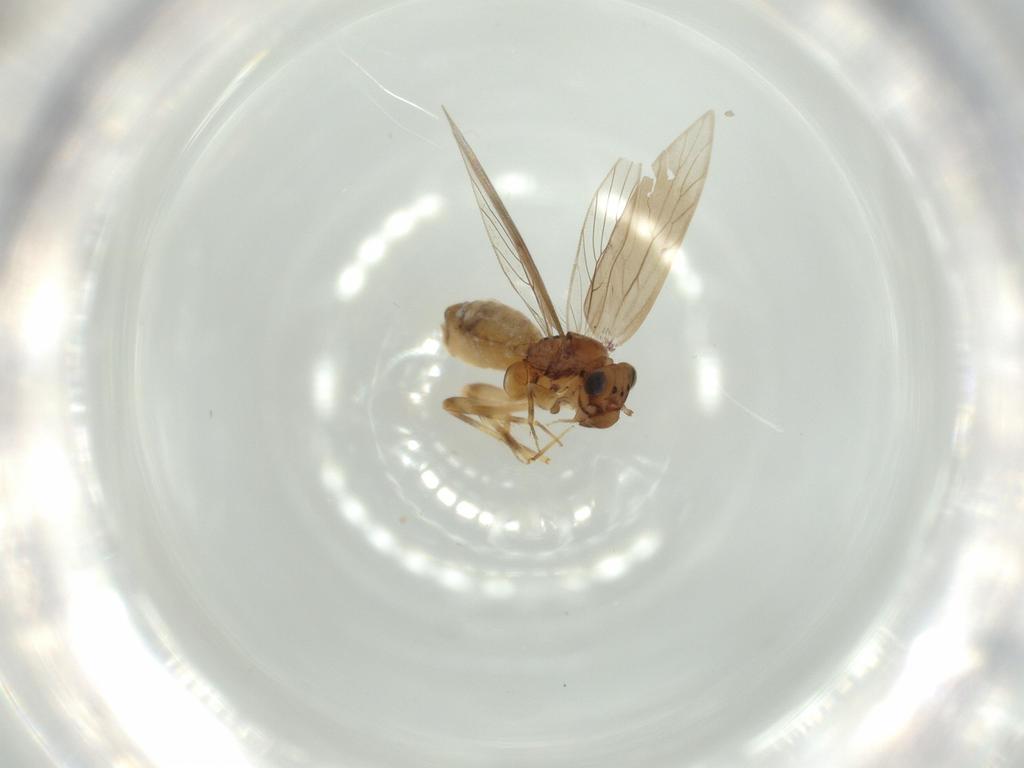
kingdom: Animalia
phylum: Arthropoda
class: Insecta
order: Psocodea
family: Lepidopsocidae
